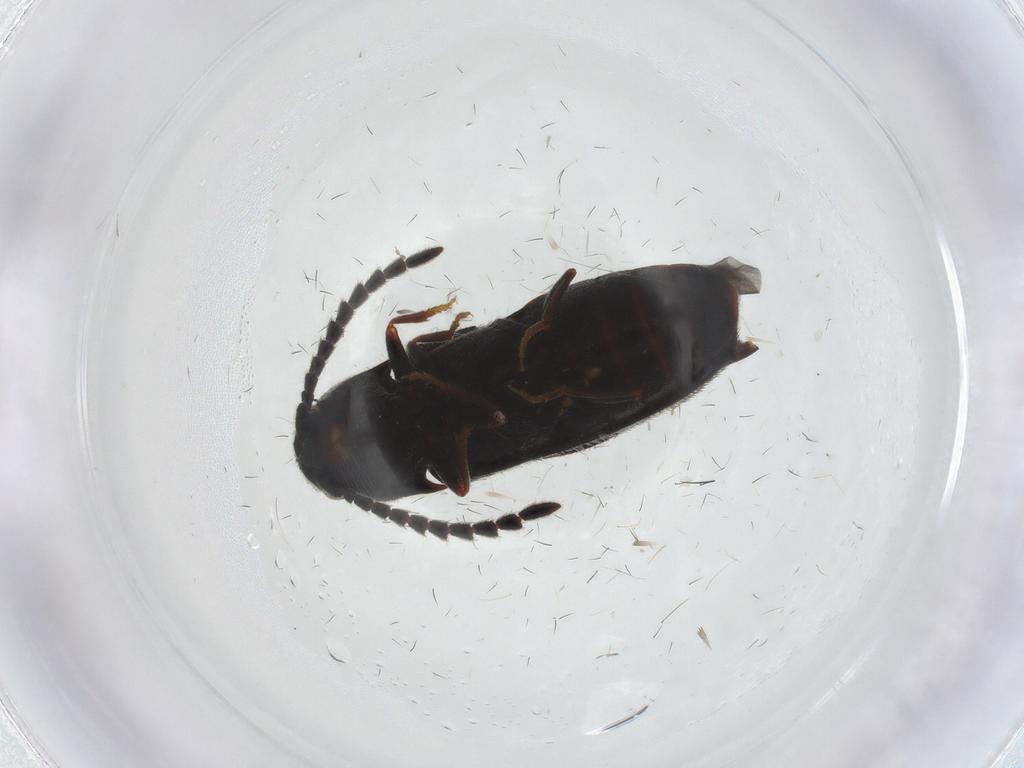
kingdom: Animalia
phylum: Arthropoda
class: Insecta
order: Coleoptera
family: Eucnemidae
